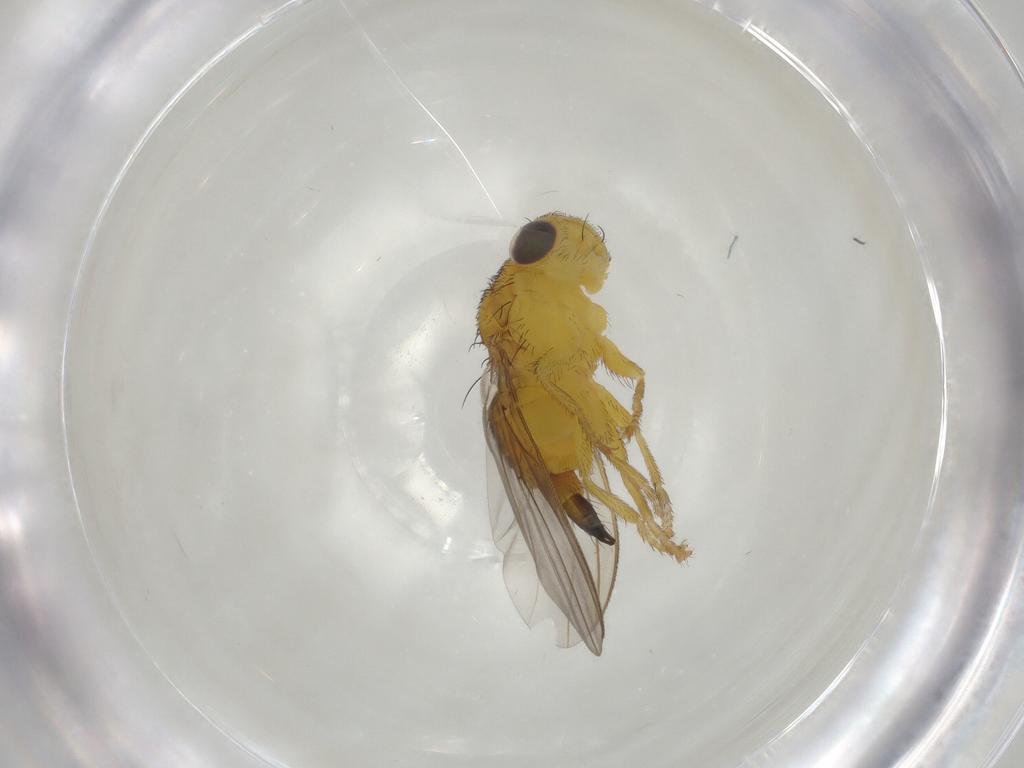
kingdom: Animalia
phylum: Arthropoda
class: Insecta
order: Diptera
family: Fergusoninidae
